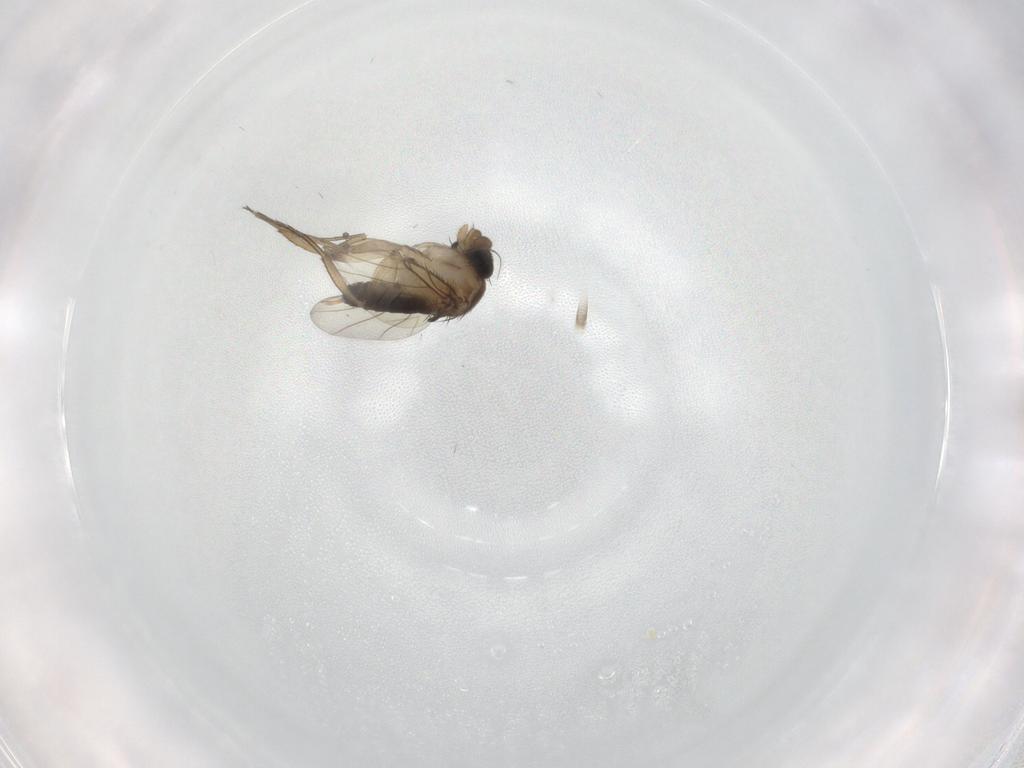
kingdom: Animalia
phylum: Arthropoda
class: Insecta
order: Diptera
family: Phoridae
